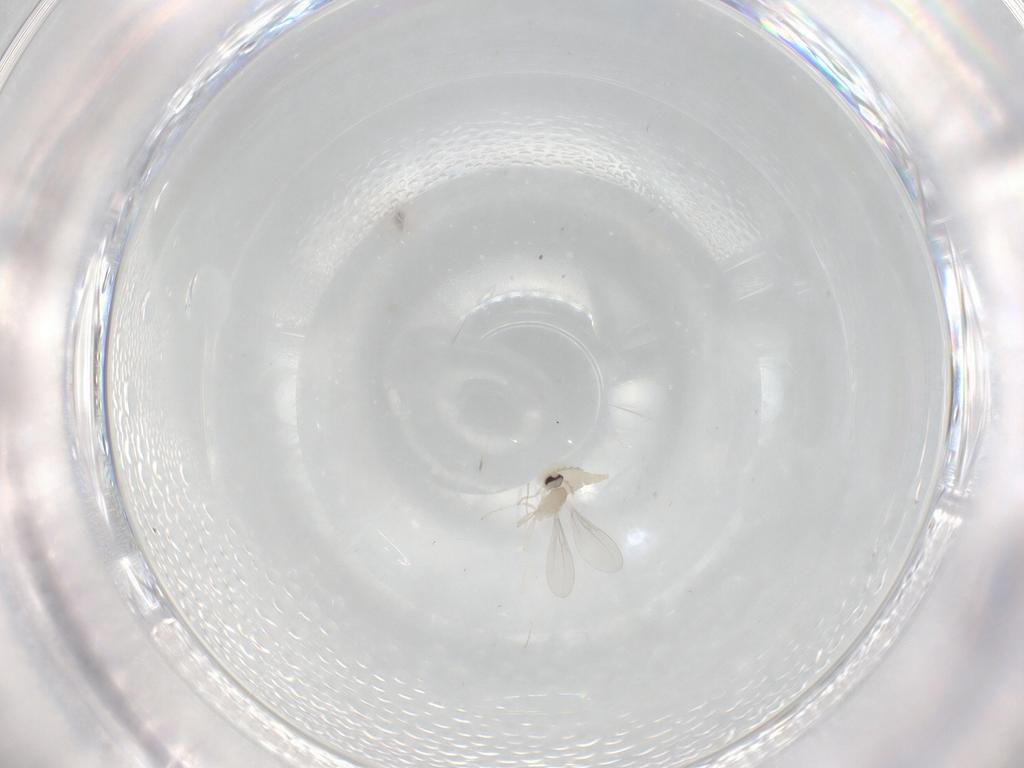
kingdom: Animalia
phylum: Arthropoda
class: Insecta
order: Diptera
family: Cecidomyiidae
